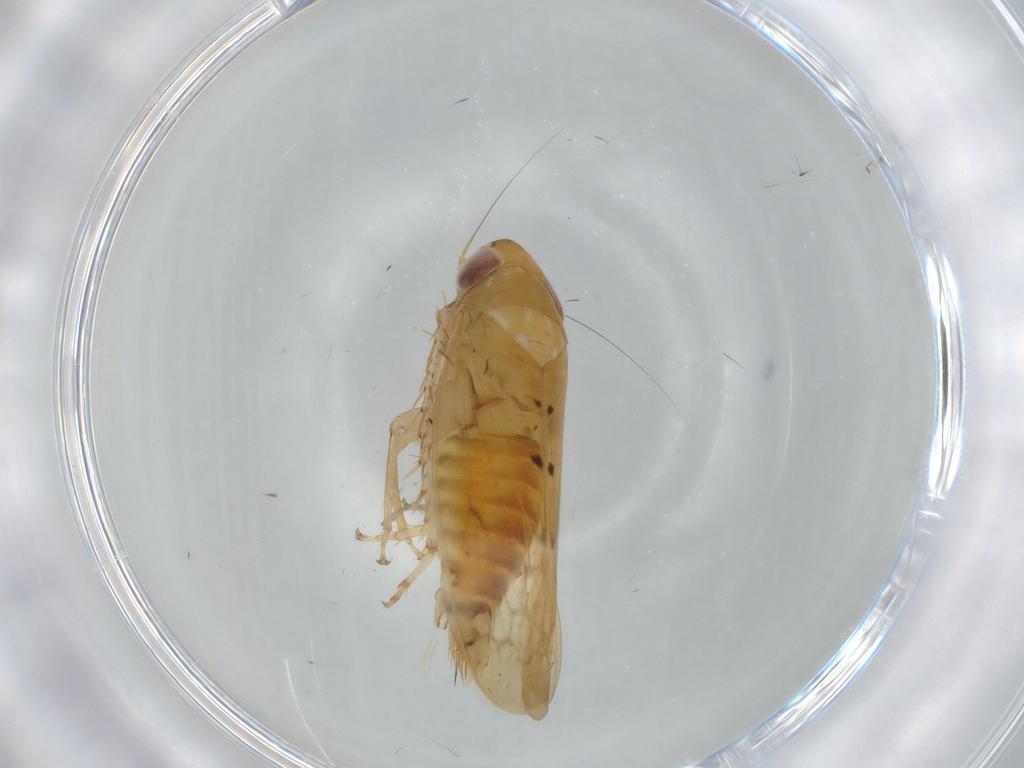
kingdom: Animalia
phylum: Arthropoda
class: Insecta
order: Hemiptera
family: Cicadellidae
